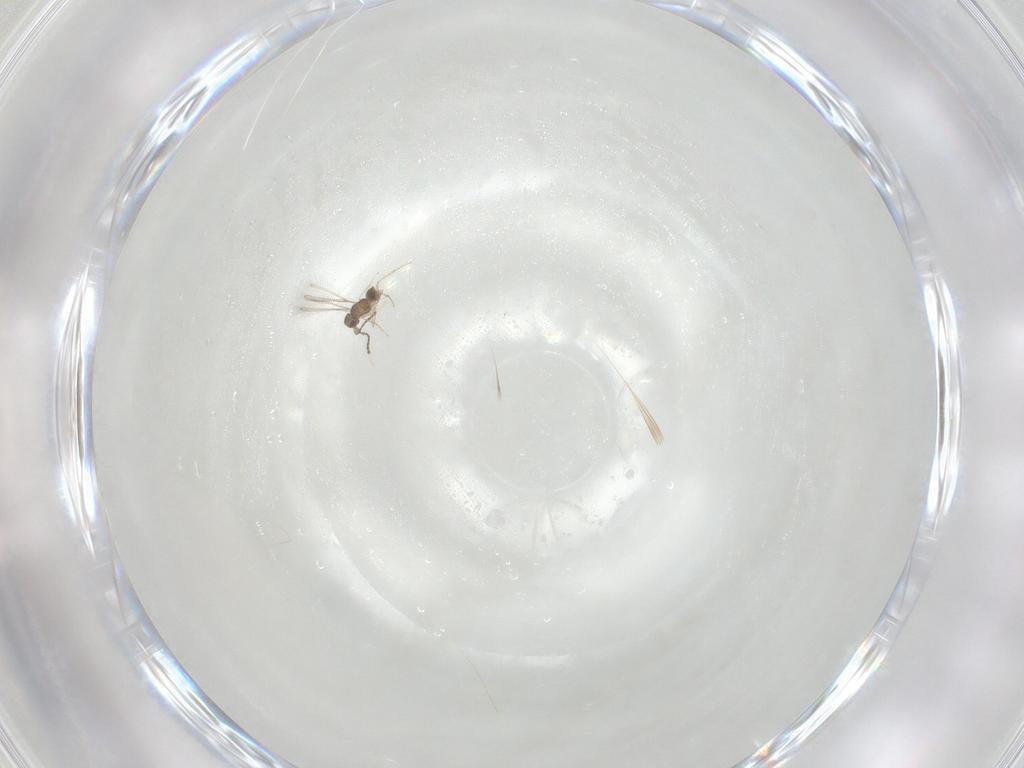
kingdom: Animalia
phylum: Arthropoda
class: Insecta
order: Hymenoptera
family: Mymaridae
